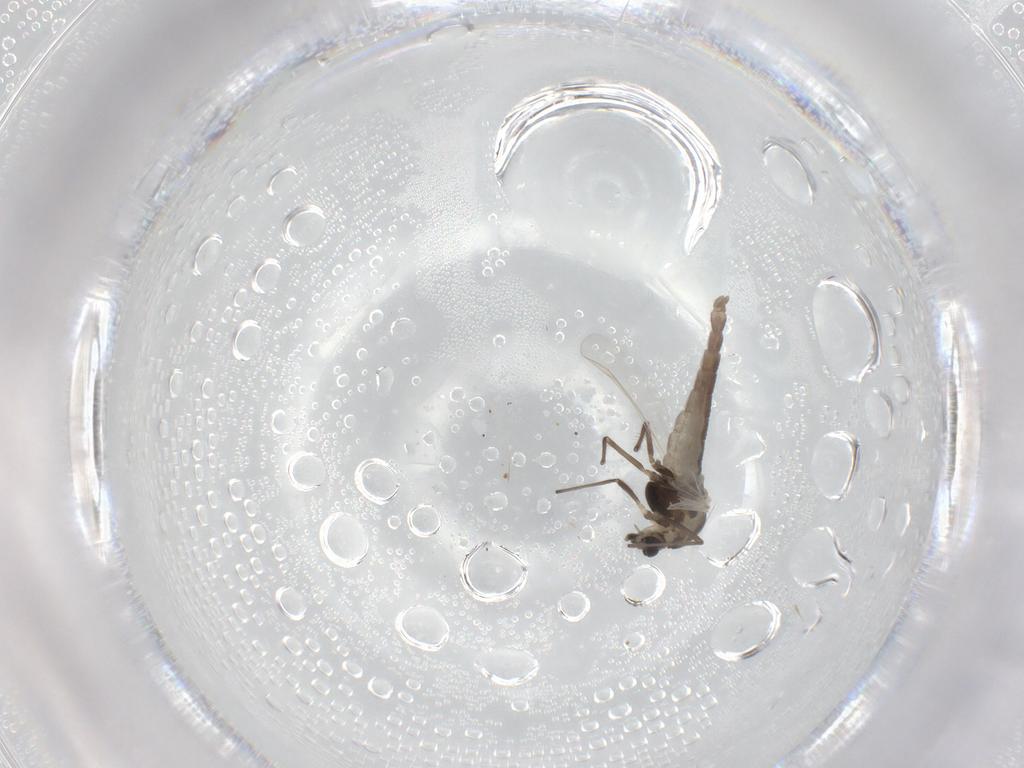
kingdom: Animalia
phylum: Arthropoda
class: Insecta
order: Diptera
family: Chironomidae
